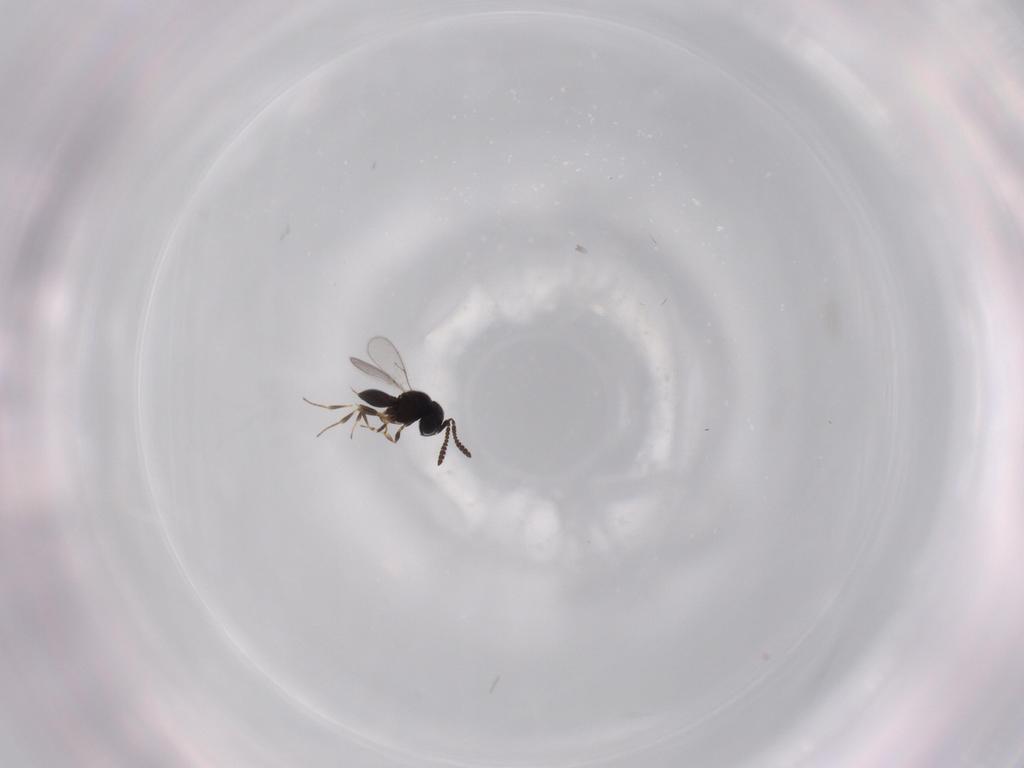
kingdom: Animalia
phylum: Arthropoda
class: Insecta
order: Hymenoptera
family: Scelionidae
